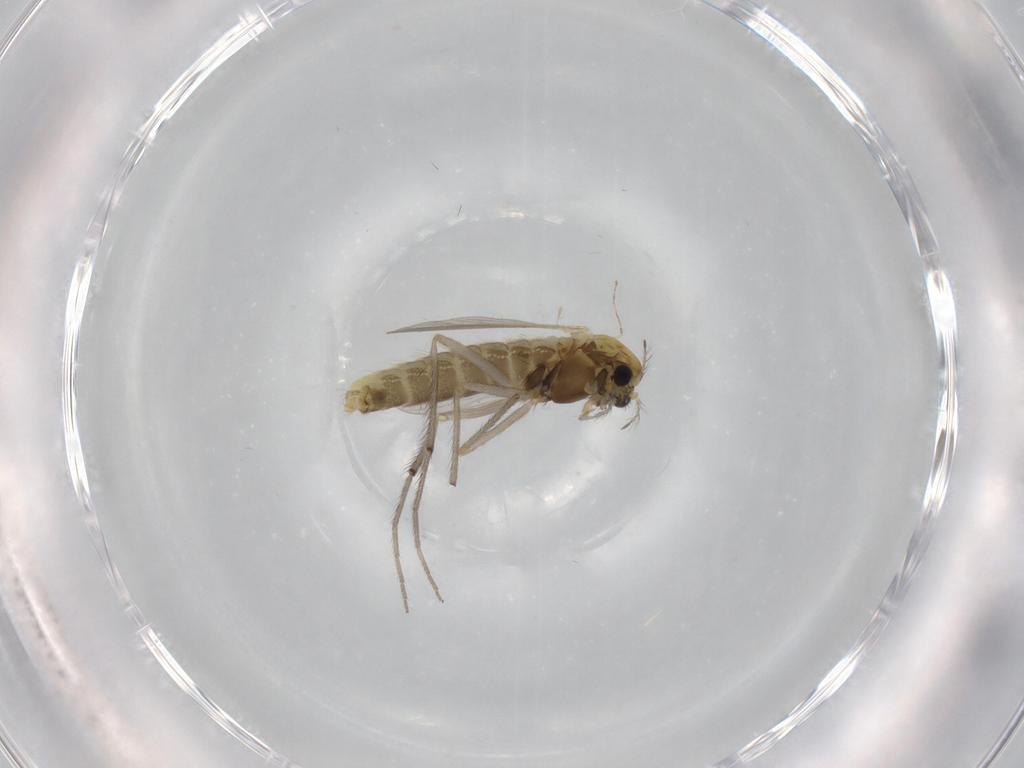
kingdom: Animalia
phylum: Arthropoda
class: Insecta
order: Diptera
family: Chironomidae
